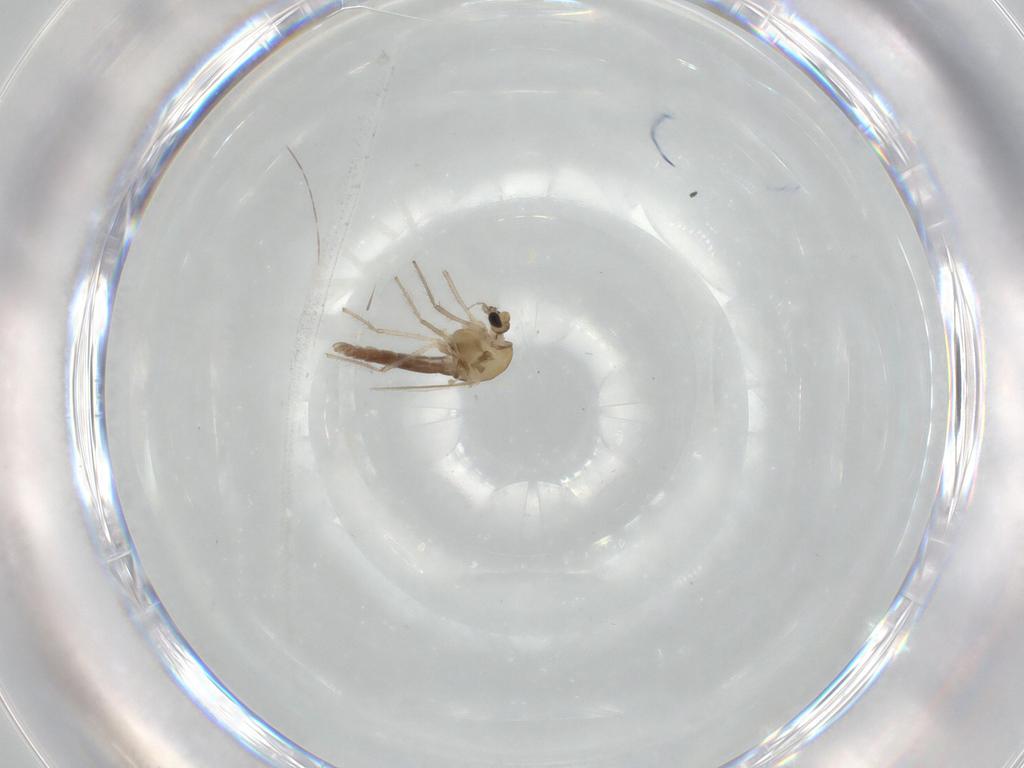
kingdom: Animalia
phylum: Arthropoda
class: Insecta
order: Diptera
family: Chironomidae
